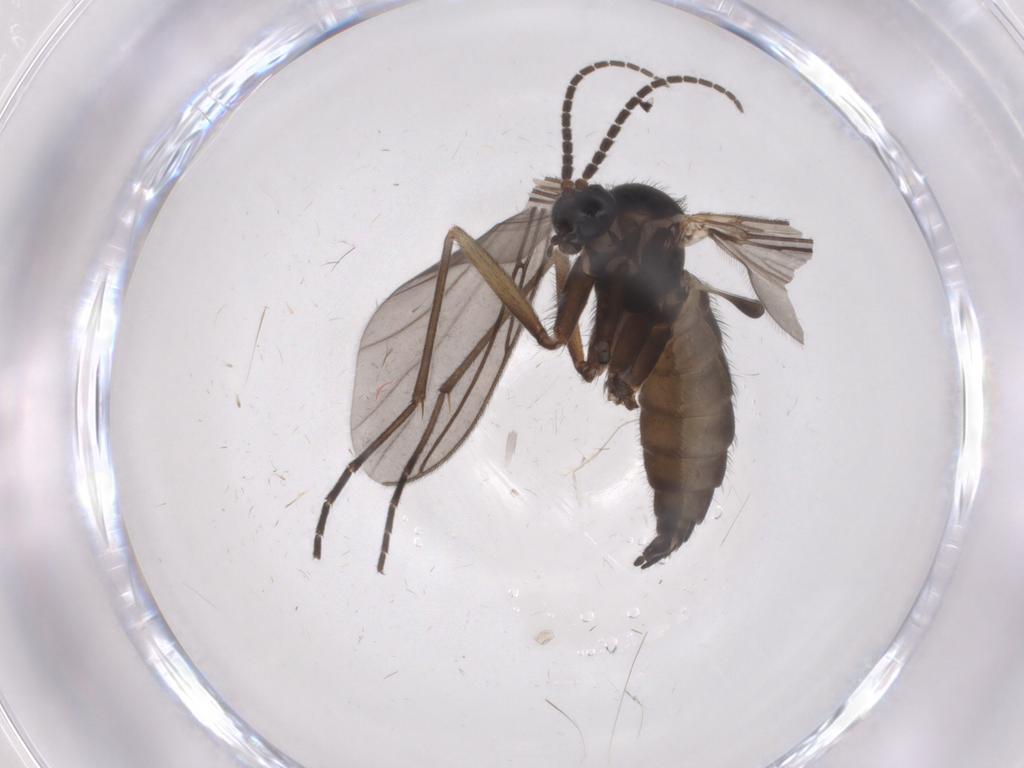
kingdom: Animalia
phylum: Arthropoda
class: Insecta
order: Diptera
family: Sciaridae
